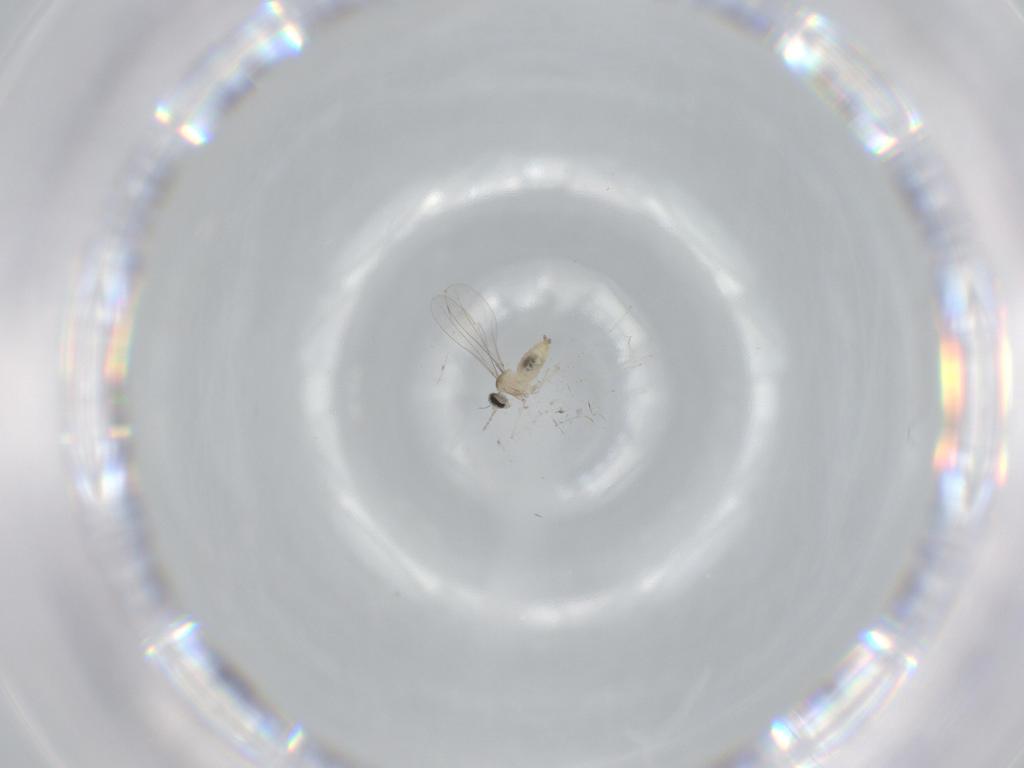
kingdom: Animalia
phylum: Arthropoda
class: Insecta
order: Diptera
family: Cecidomyiidae
